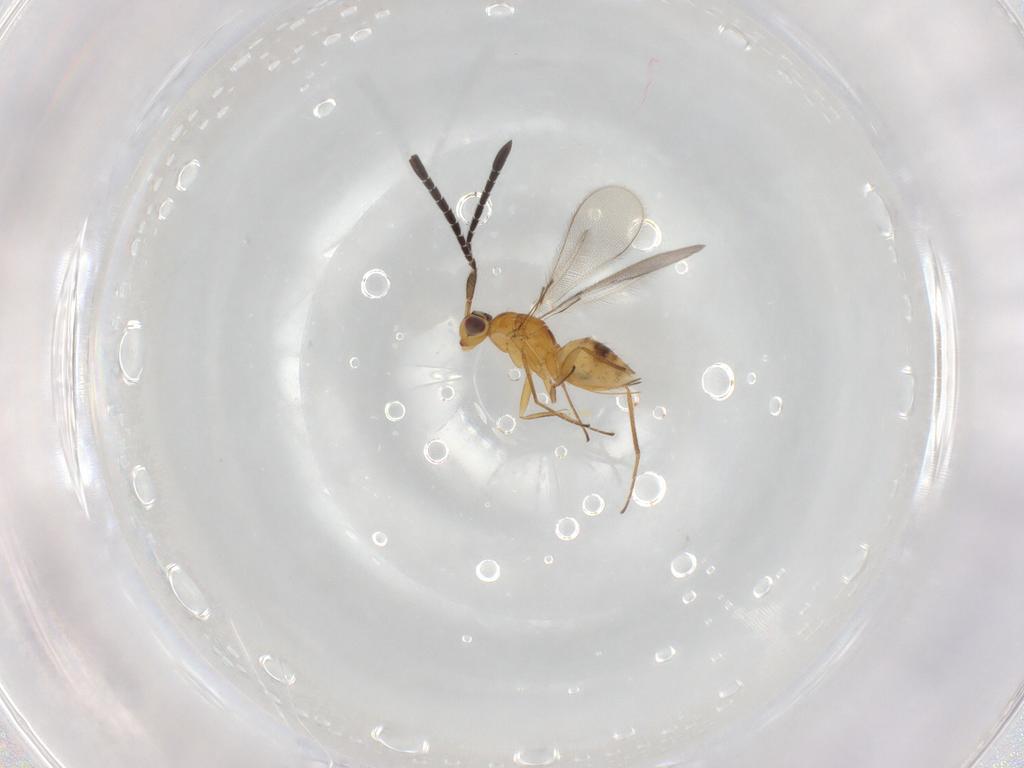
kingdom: Animalia
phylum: Arthropoda
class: Insecta
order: Hymenoptera
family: Mymaridae
